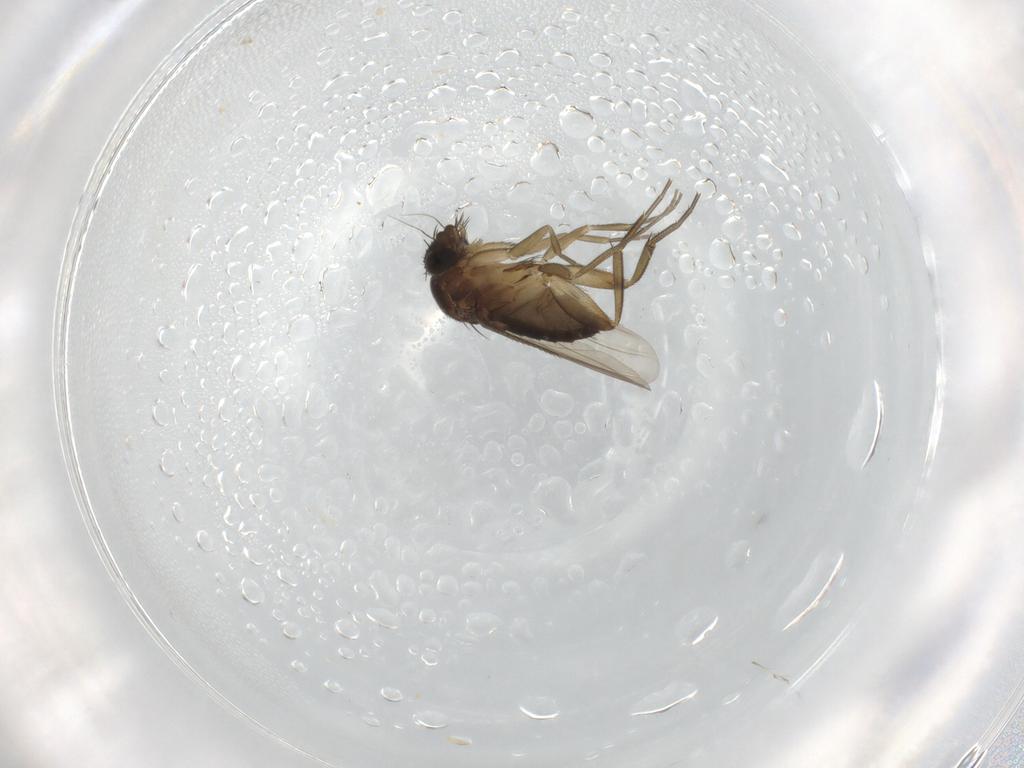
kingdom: Animalia
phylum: Arthropoda
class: Insecta
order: Diptera
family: Phoridae
